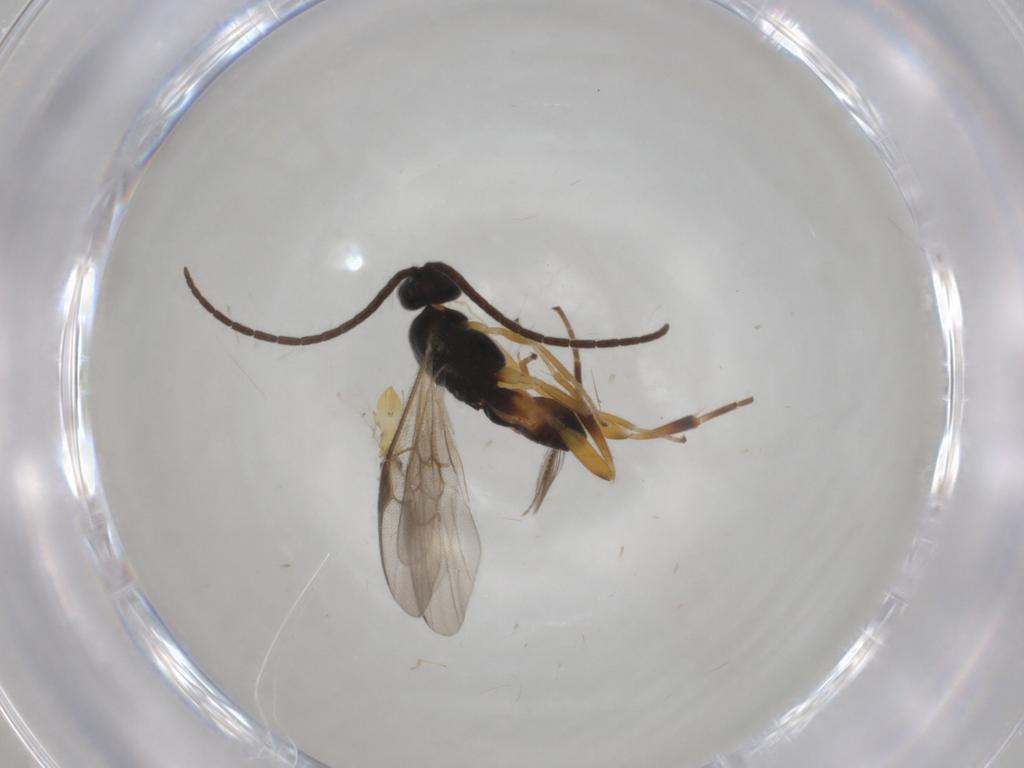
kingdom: Animalia
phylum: Arthropoda
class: Insecta
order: Hymenoptera
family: Braconidae
